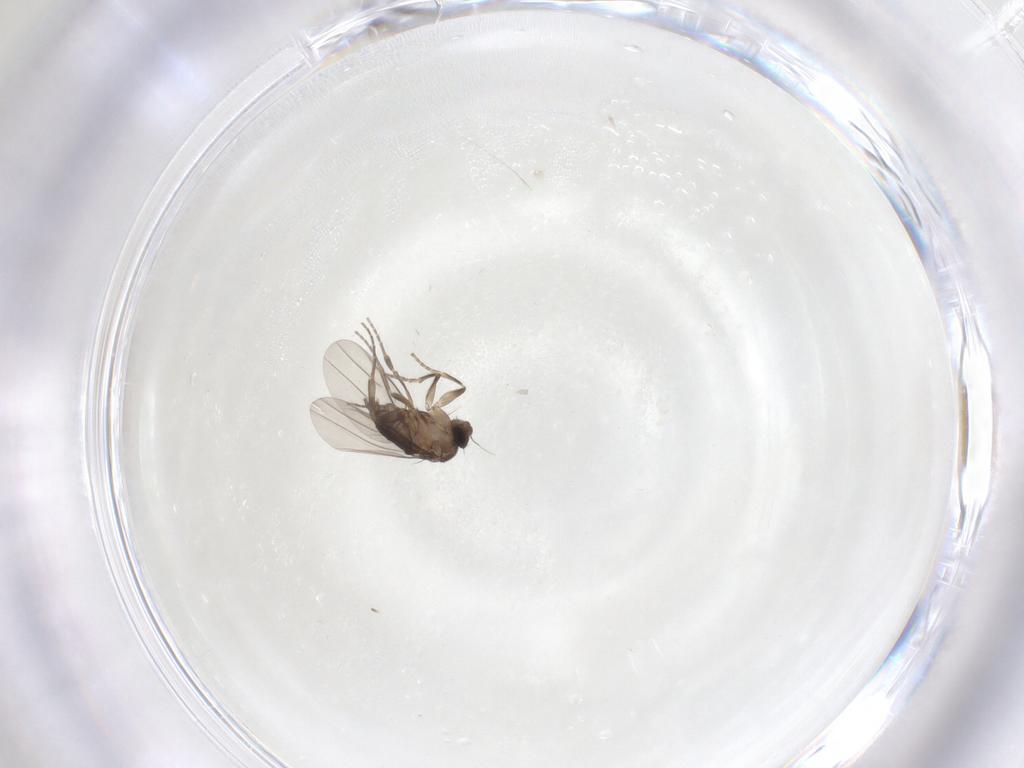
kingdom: Animalia
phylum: Arthropoda
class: Insecta
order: Diptera
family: Phoridae
